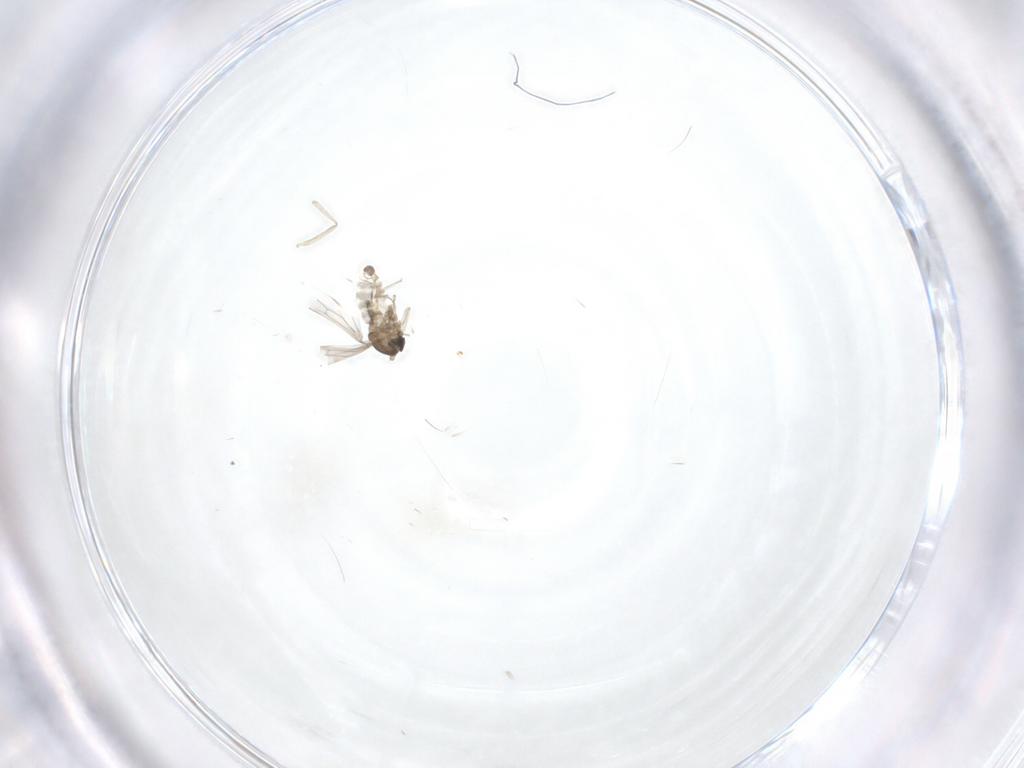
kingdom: Animalia
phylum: Arthropoda
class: Insecta
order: Diptera
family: Cecidomyiidae
